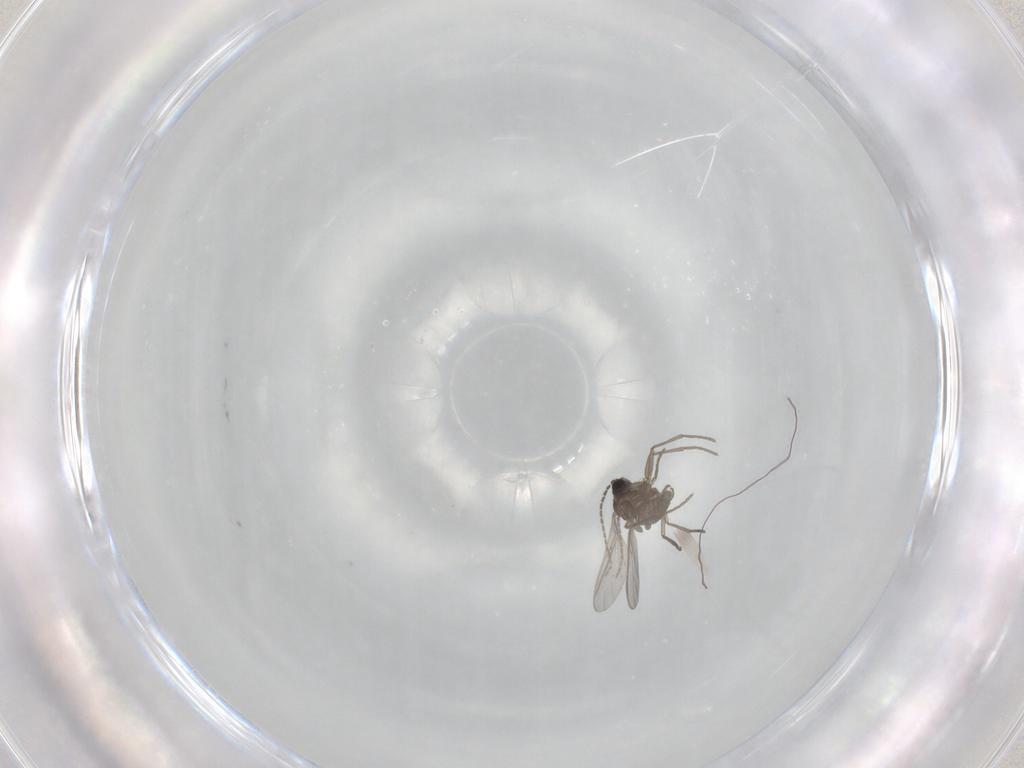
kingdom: Animalia
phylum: Arthropoda
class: Insecta
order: Diptera
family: Sciaridae
